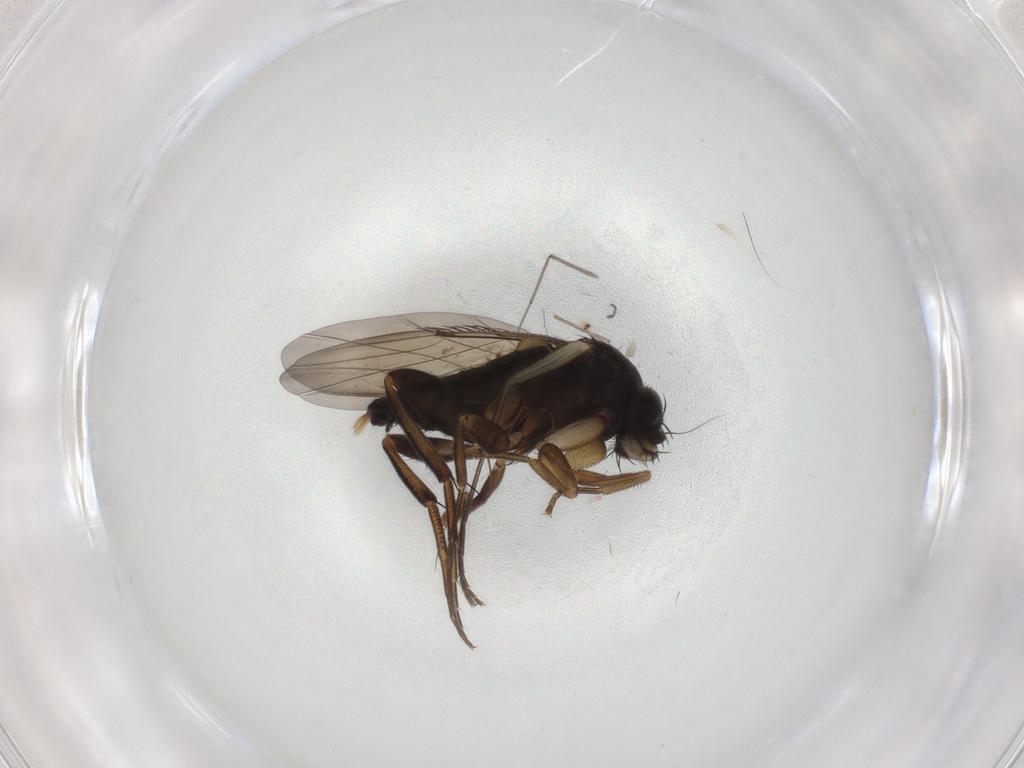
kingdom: Animalia
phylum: Arthropoda
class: Insecta
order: Diptera
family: Phoridae
